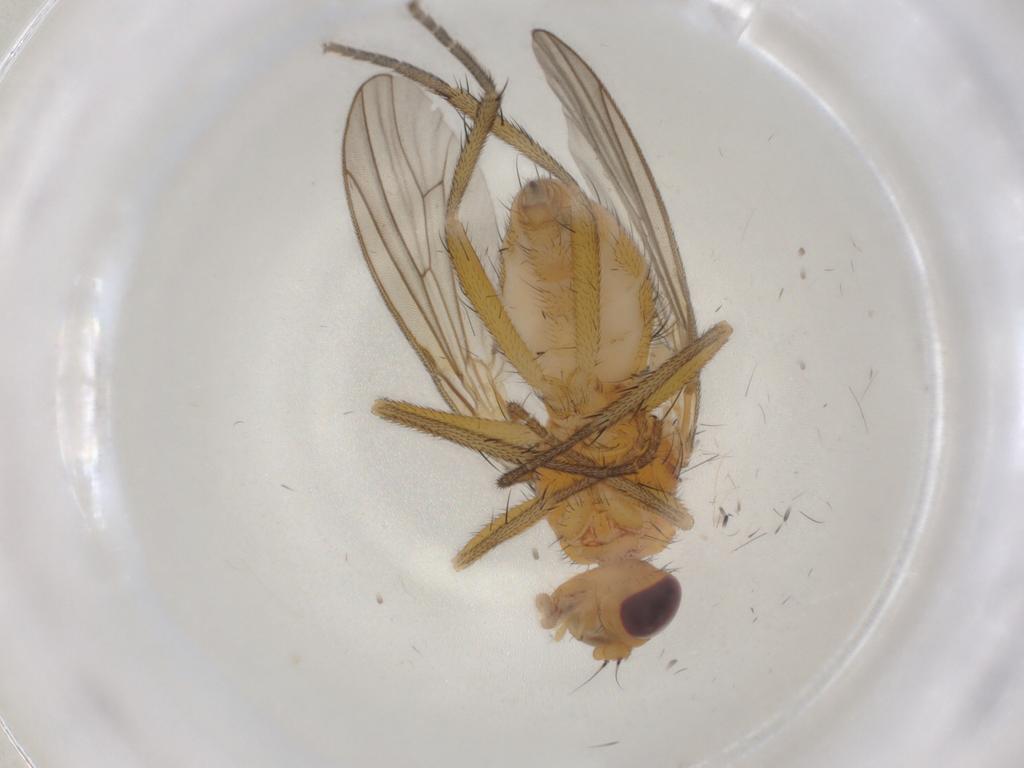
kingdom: Animalia
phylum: Arthropoda
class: Insecta
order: Diptera
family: Scathophagidae
